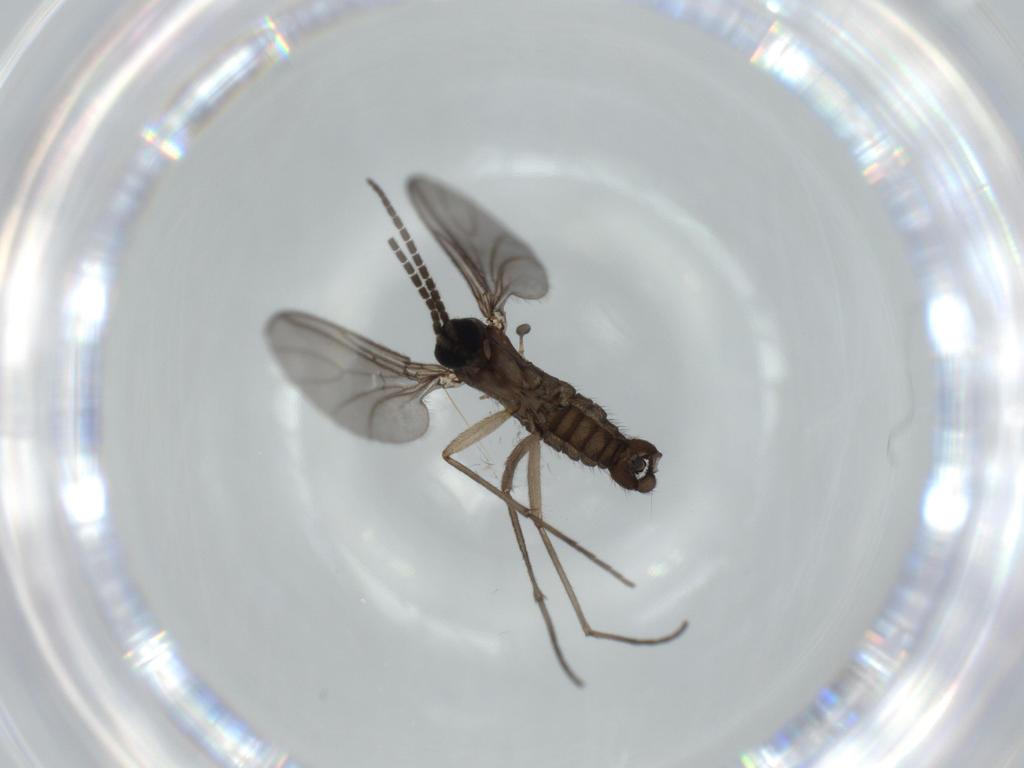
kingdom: Animalia
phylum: Arthropoda
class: Insecta
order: Diptera
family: Sciaridae
